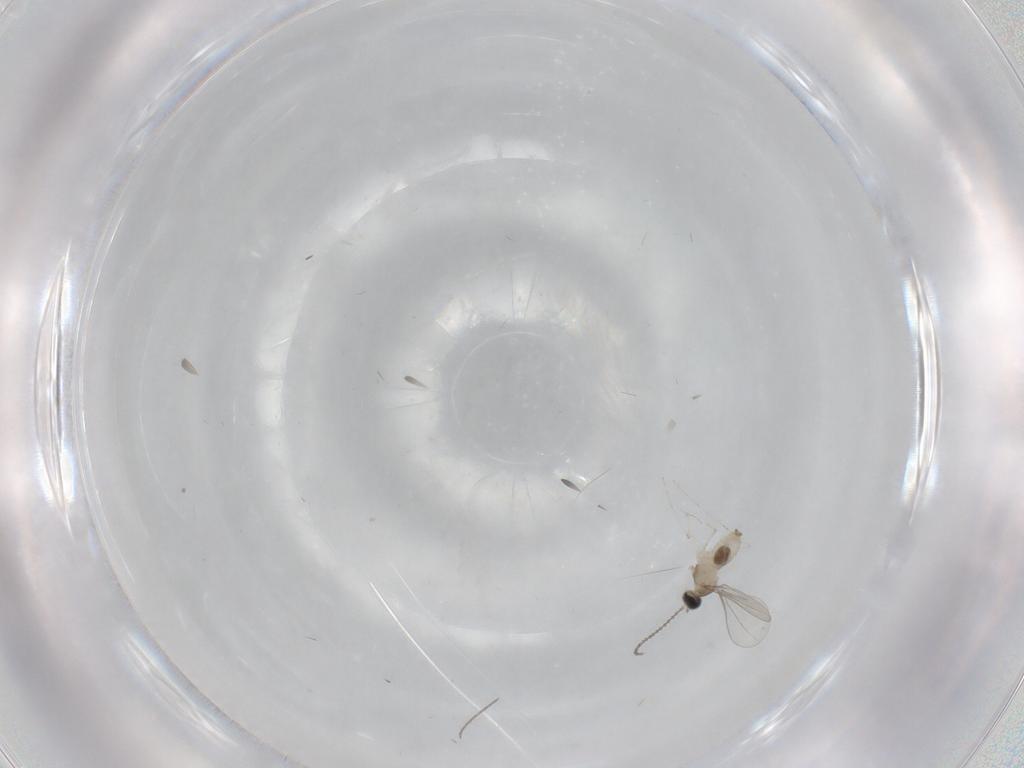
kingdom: Animalia
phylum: Arthropoda
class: Insecta
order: Diptera
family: Cecidomyiidae
